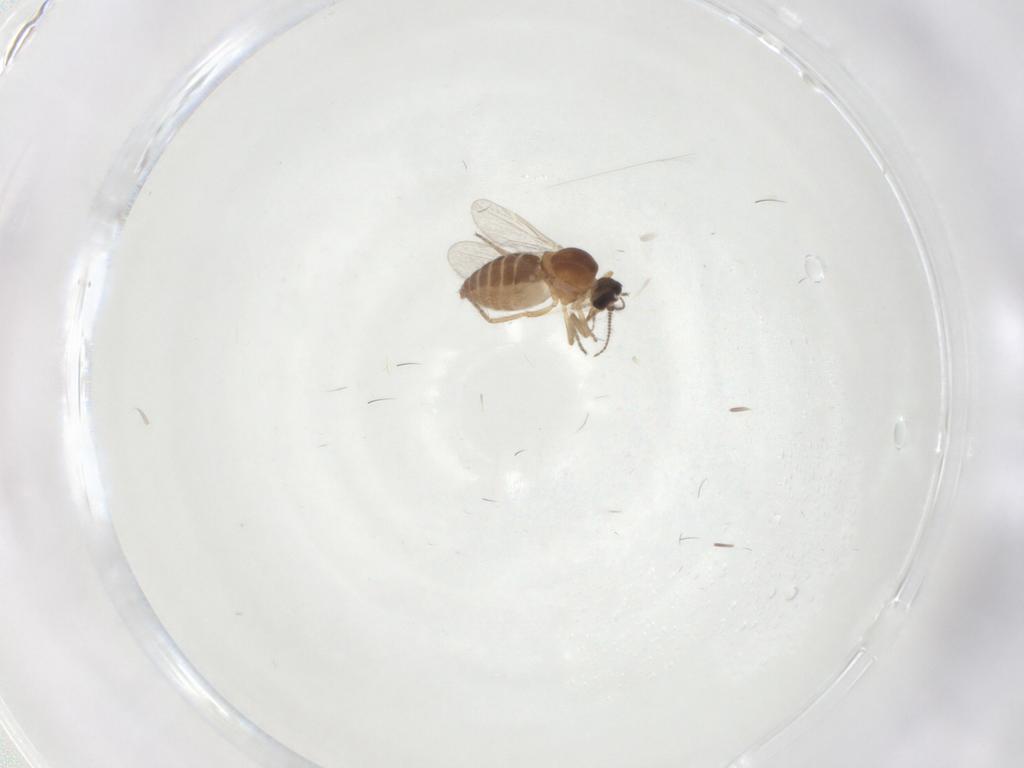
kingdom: Animalia
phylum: Arthropoda
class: Insecta
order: Diptera
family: Ceratopogonidae
